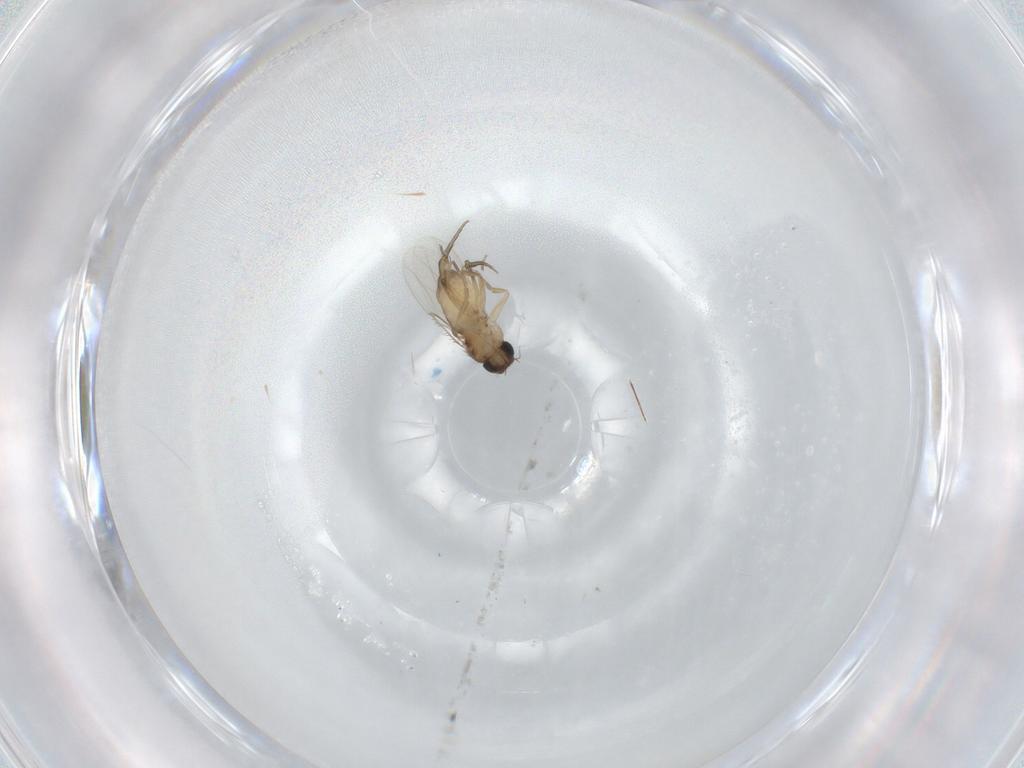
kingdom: Animalia
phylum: Arthropoda
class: Insecta
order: Diptera
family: Phoridae
